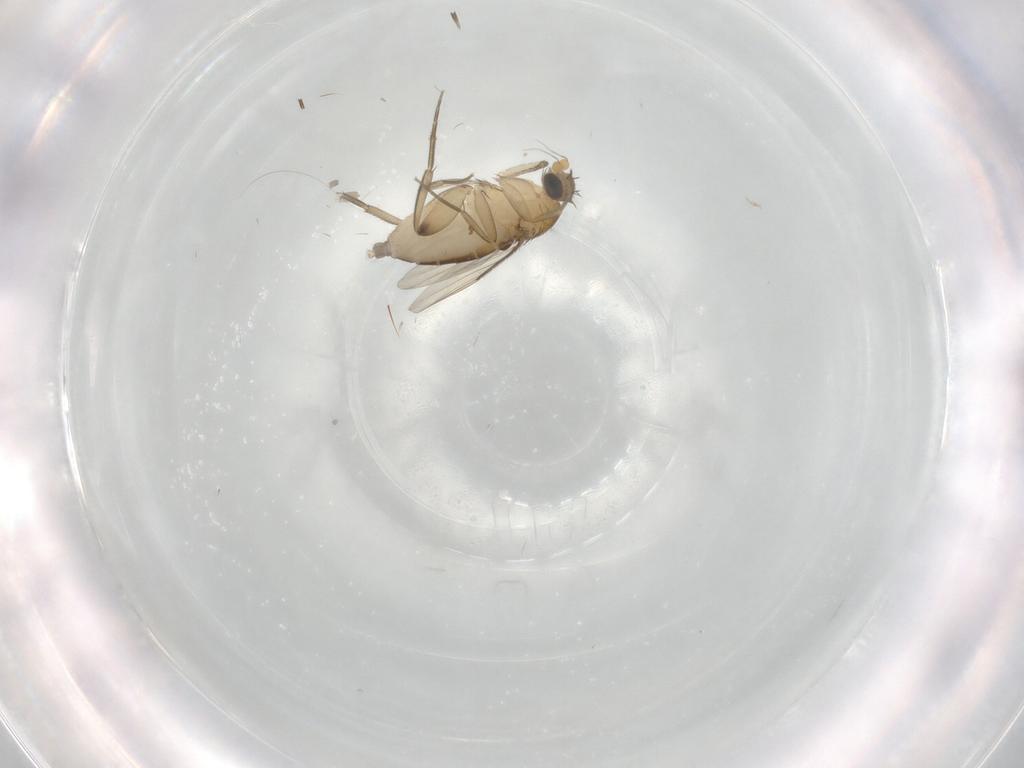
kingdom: Animalia
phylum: Arthropoda
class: Insecta
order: Diptera
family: Phoridae
